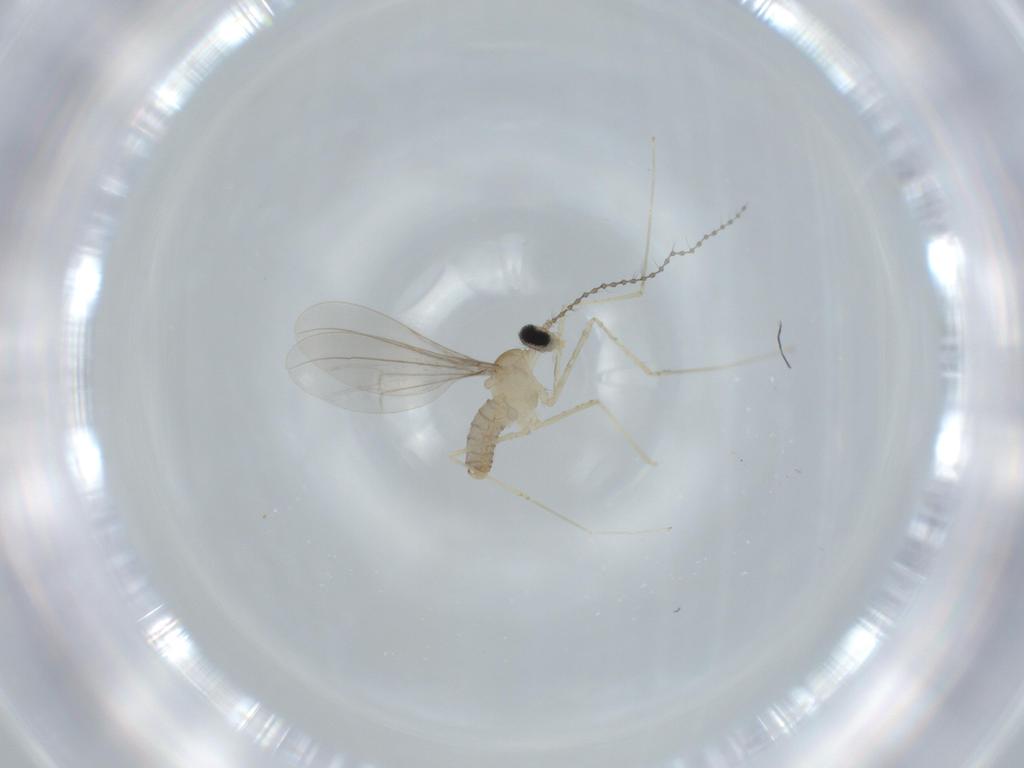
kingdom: Animalia
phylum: Arthropoda
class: Insecta
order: Diptera
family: Cecidomyiidae
